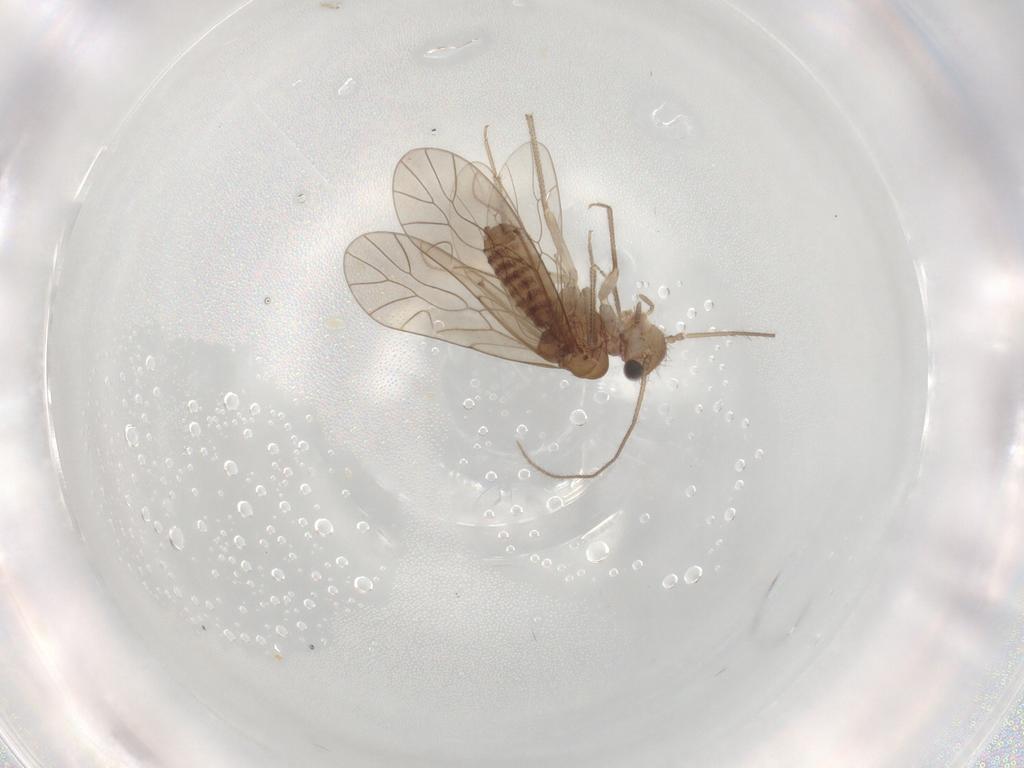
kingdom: Animalia
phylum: Arthropoda
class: Insecta
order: Psocodea
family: Caeciliusidae
